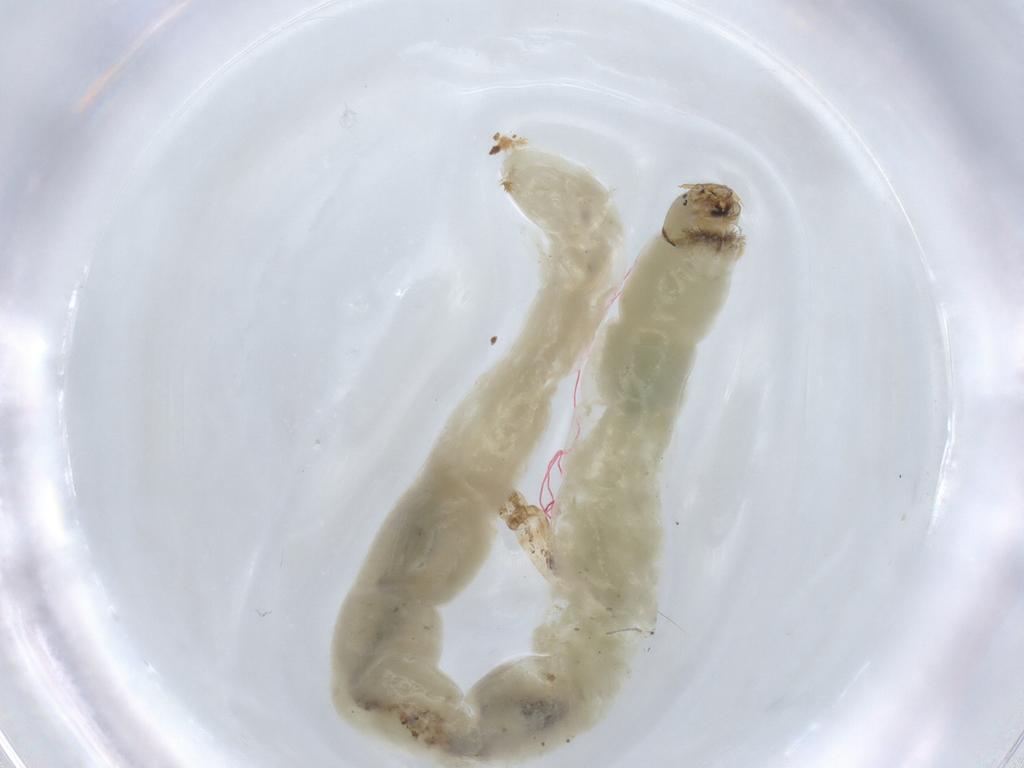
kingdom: Animalia
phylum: Arthropoda
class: Insecta
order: Diptera
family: Chironomidae
